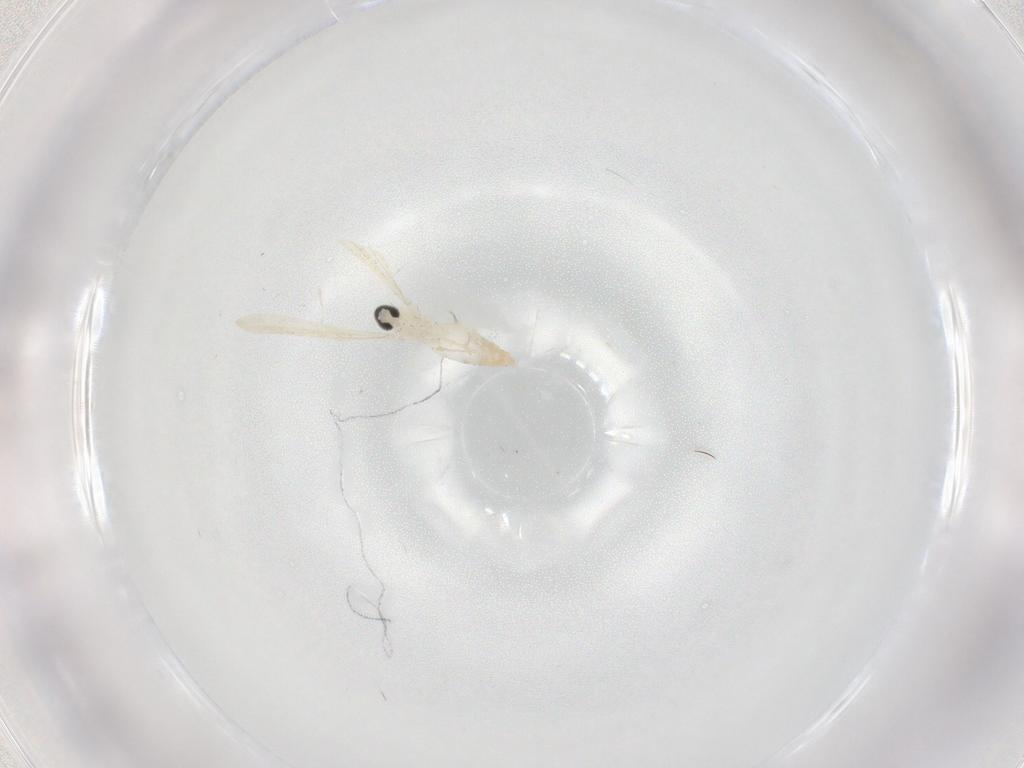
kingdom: Animalia
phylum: Arthropoda
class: Insecta
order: Diptera
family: Cecidomyiidae
